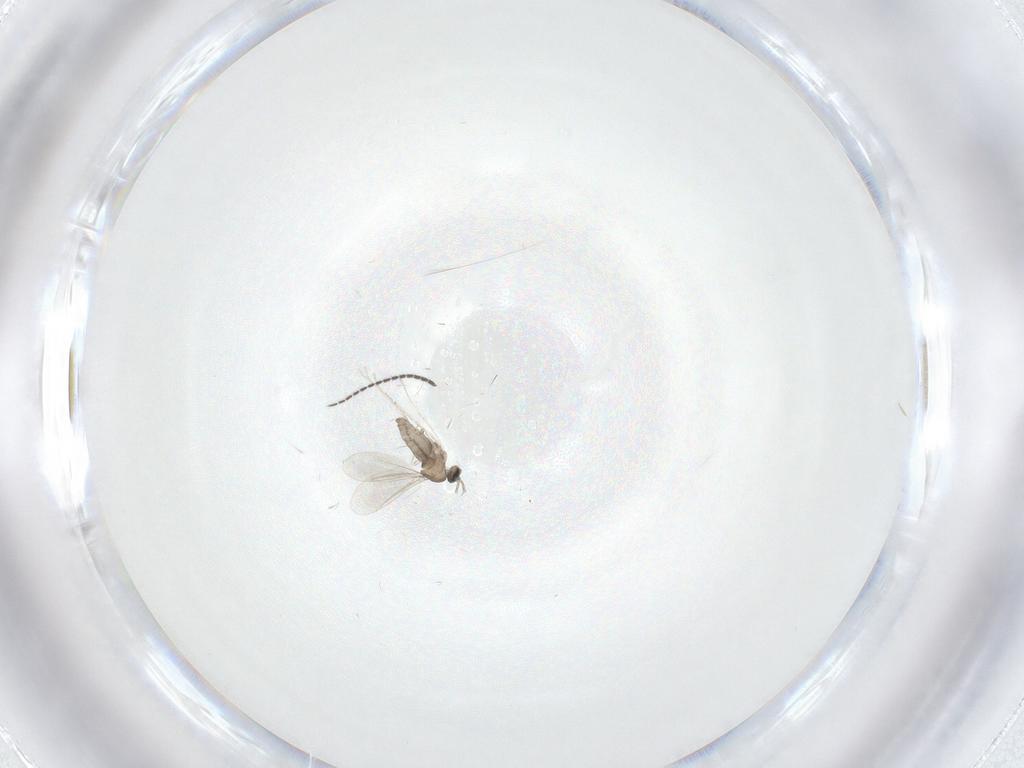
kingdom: Animalia
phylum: Arthropoda
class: Insecta
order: Diptera
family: Cecidomyiidae
